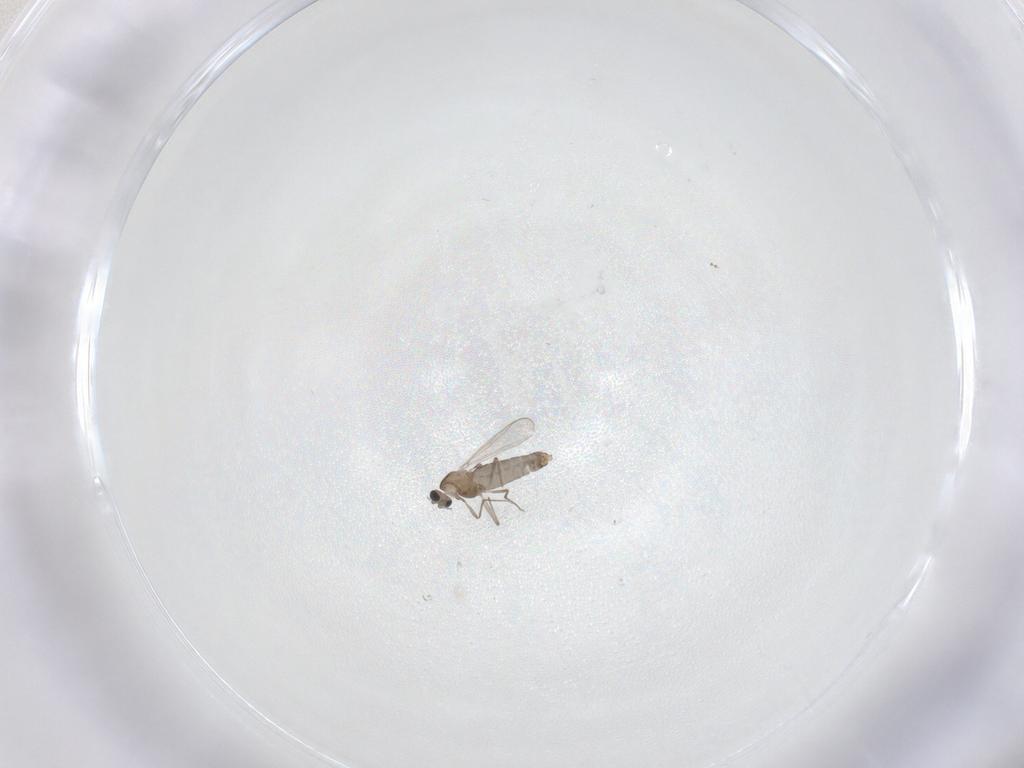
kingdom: Animalia
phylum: Arthropoda
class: Insecta
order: Diptera
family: Chironomidae
